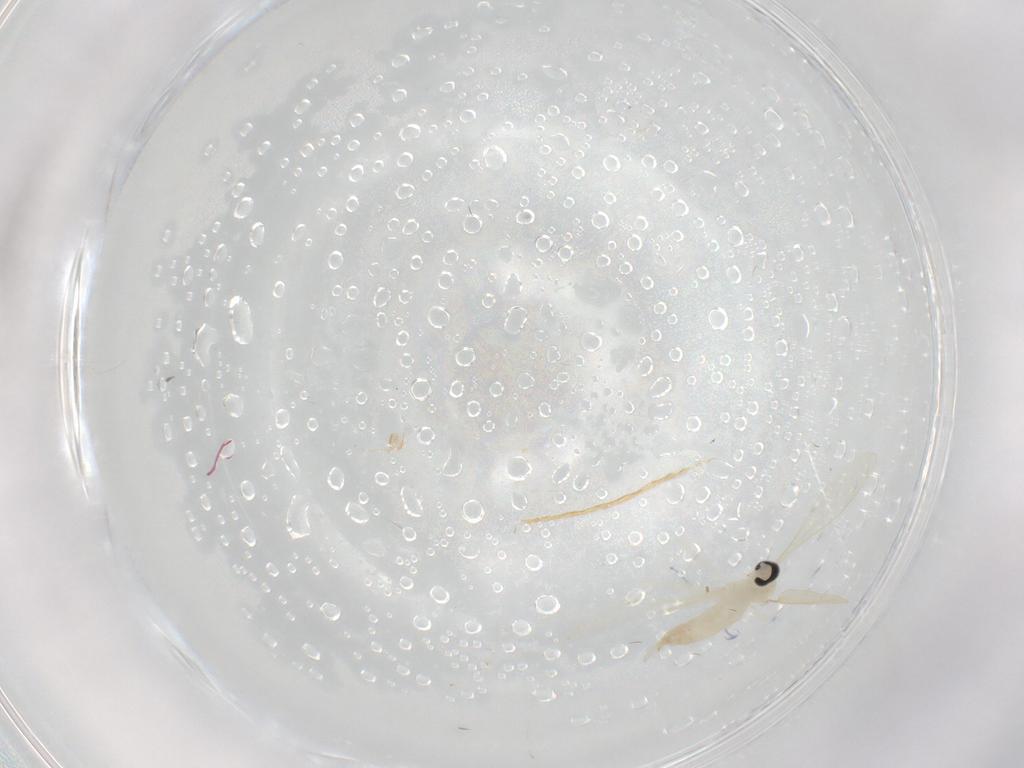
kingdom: Animalia
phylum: Arthropoda
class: Insecta
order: Diptera
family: Cecidomyiidae
